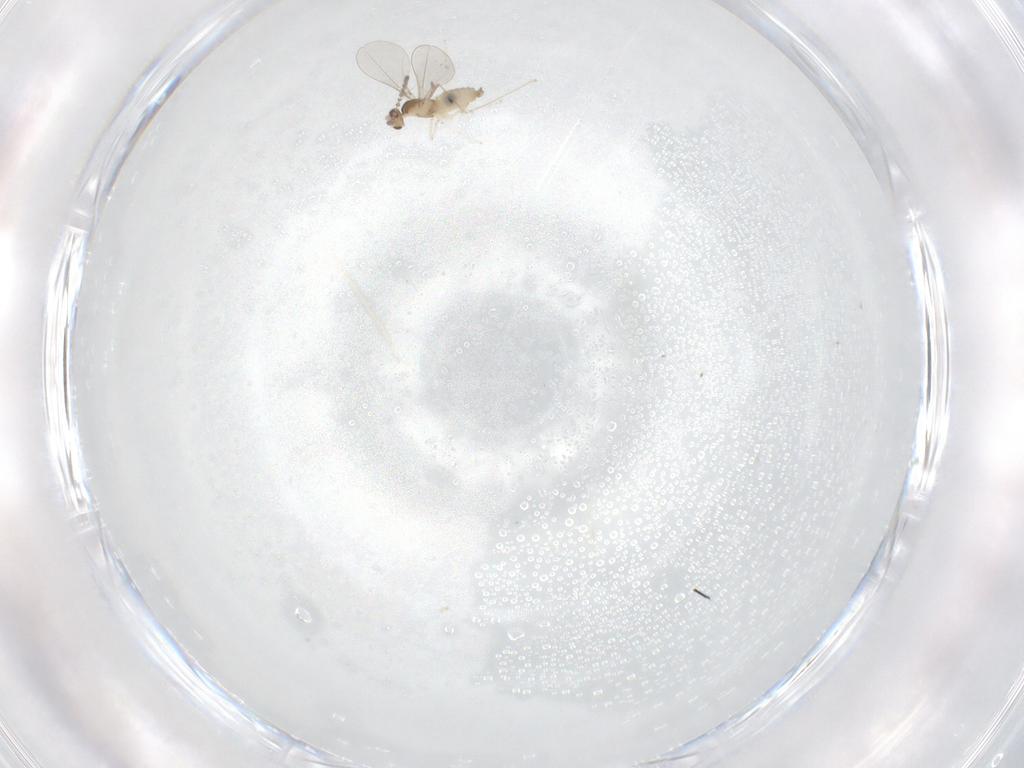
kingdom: Animalia
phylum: Arthropoda
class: Insecta
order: Diptera
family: Cecidomyiidae
